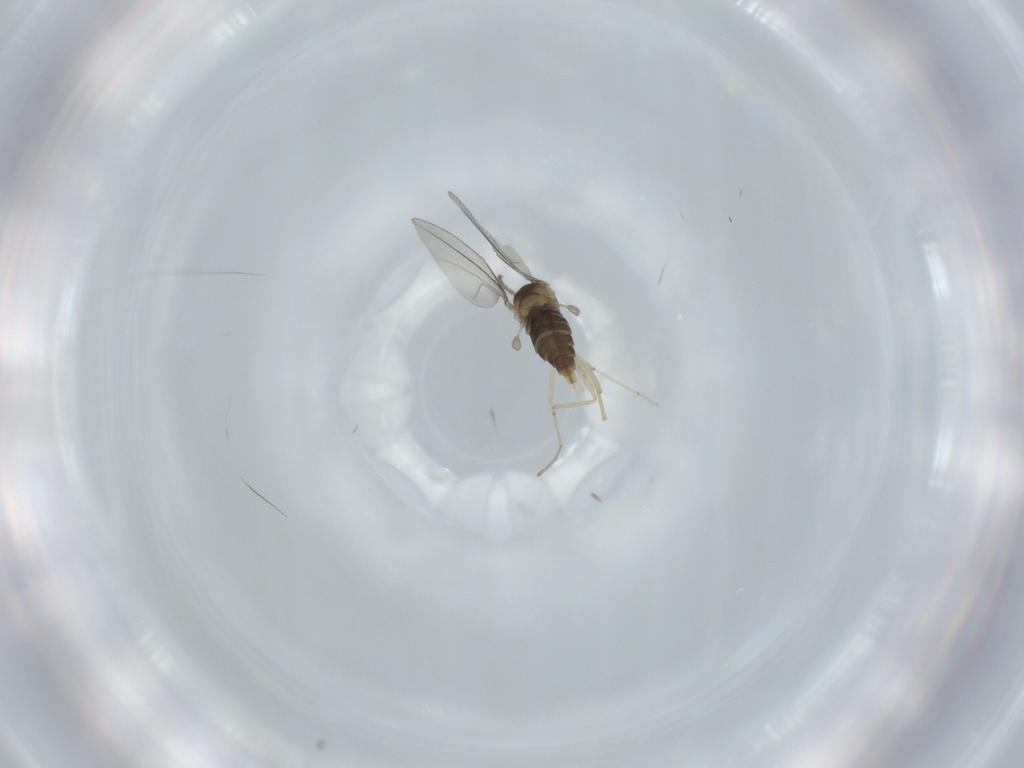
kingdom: Animalia
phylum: Arthropoda
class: Insecta
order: Diptera
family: Cecidomyiidae
